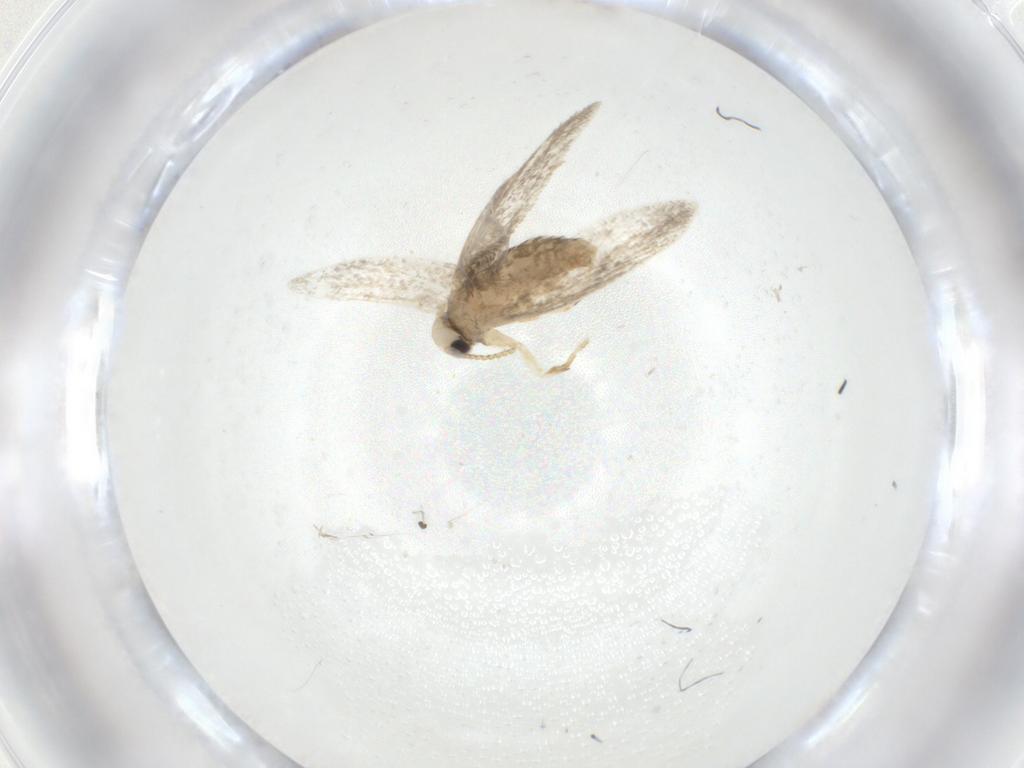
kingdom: Animalia
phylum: Arthropoda
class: Insecta
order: Lepidoptera
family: Psychidae
